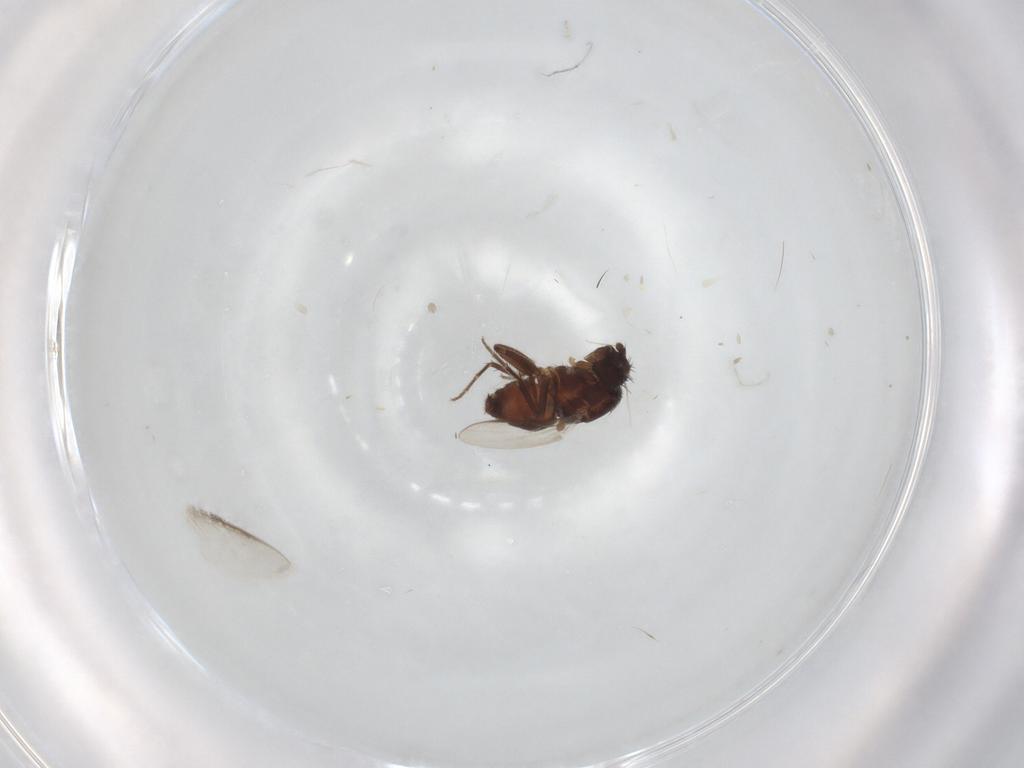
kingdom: Animalia
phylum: Arthropoda
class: Insecta
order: Diptera
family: Sphaeroceridae
